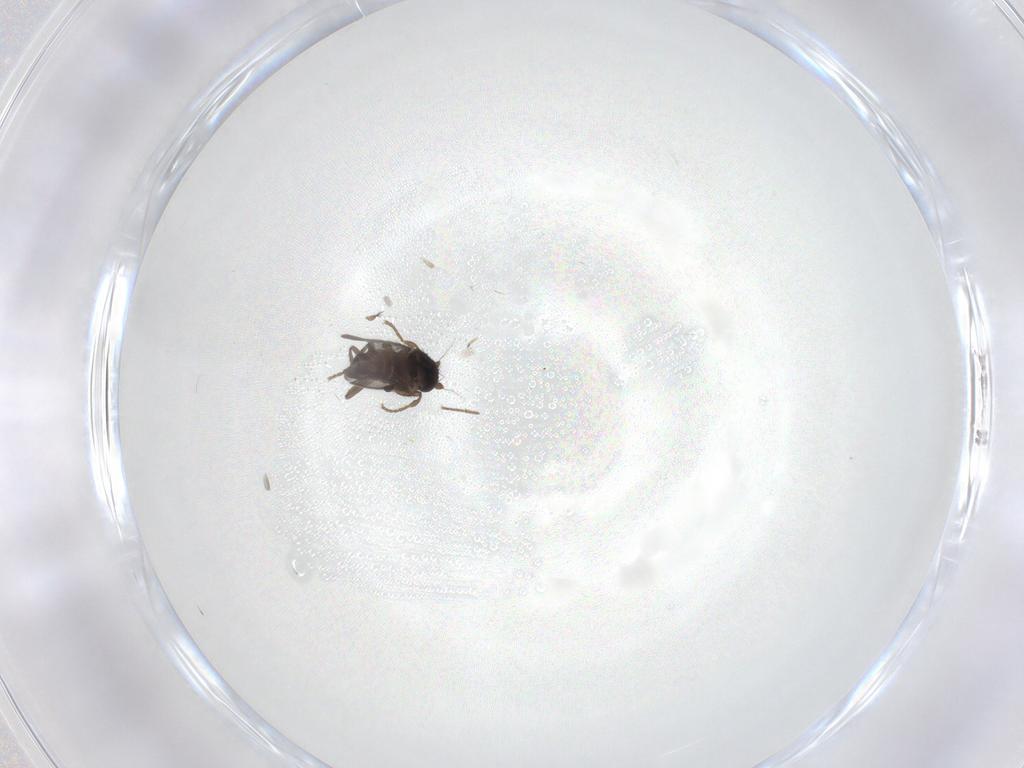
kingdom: Animalia
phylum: Arthropoda
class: Insecta
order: Diptera
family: Sphaeroceridae
